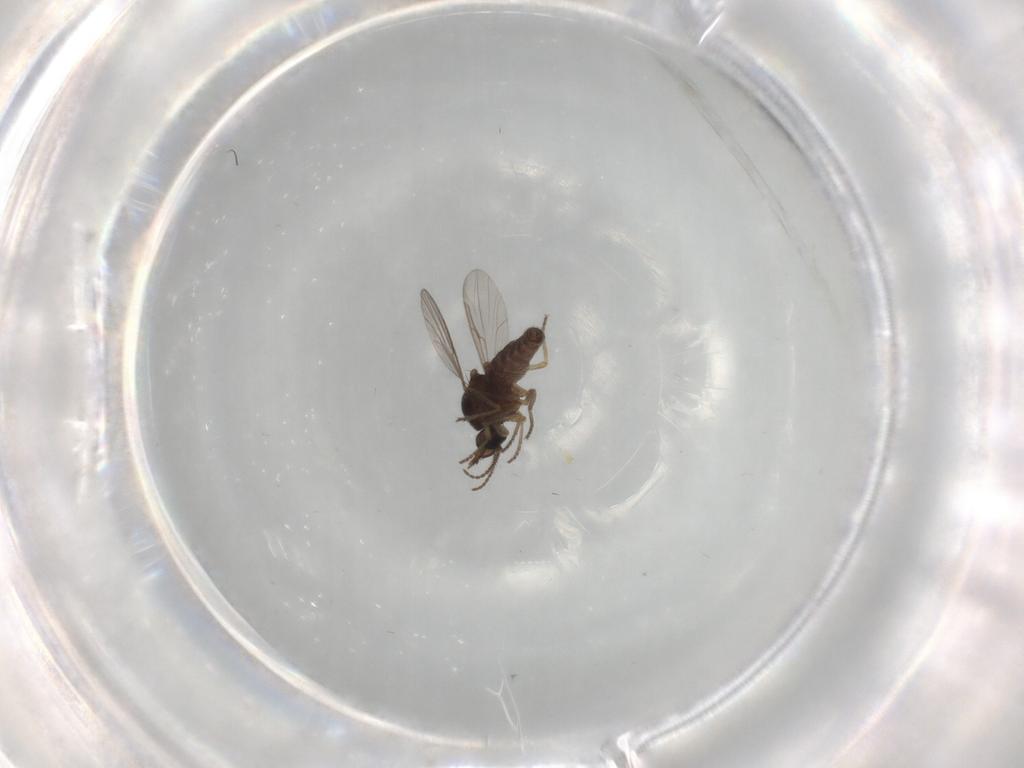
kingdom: Animalia
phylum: Arthropoda
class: Insecta
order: Diptera
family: Ceratopogonidae
